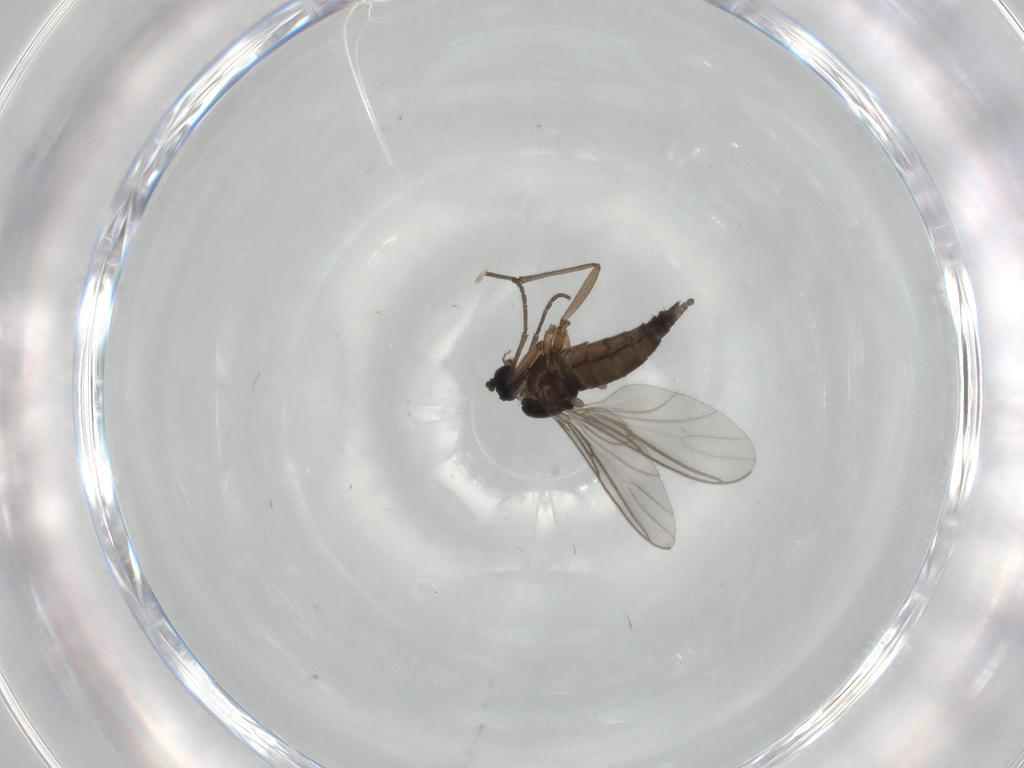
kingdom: Animalia
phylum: Arthropoda
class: Insecta
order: Diptera
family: Sciaridae
